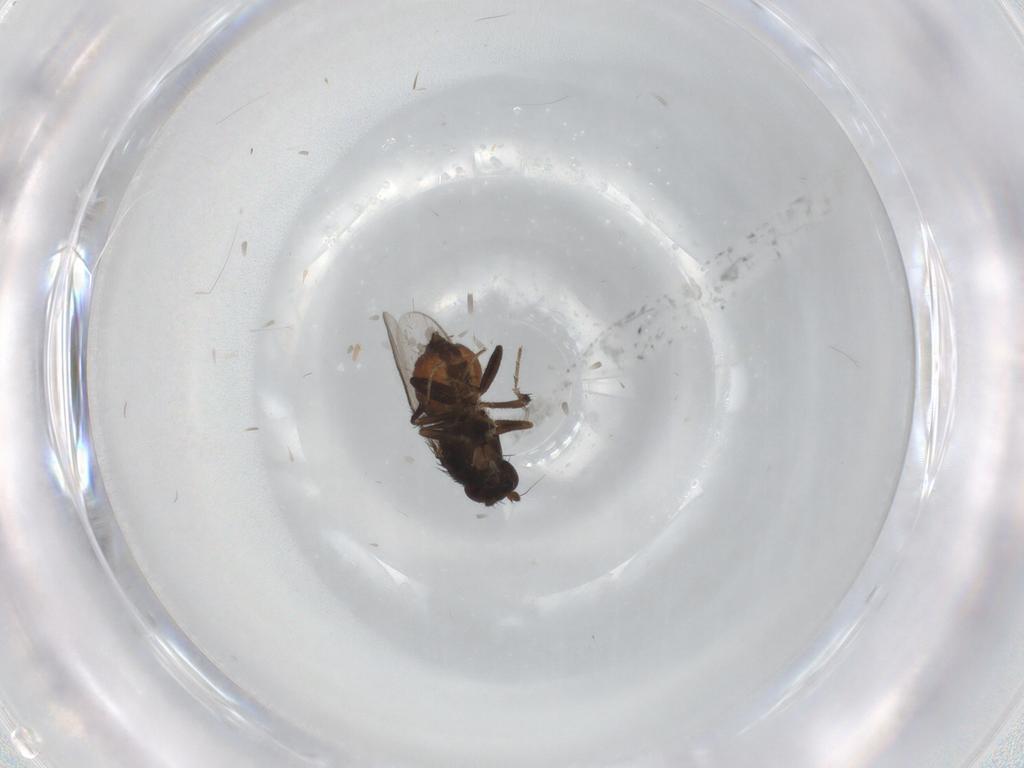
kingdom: Animalia
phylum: Arthropoda
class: Insecta
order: Diptera
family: Sphaeroceridae
